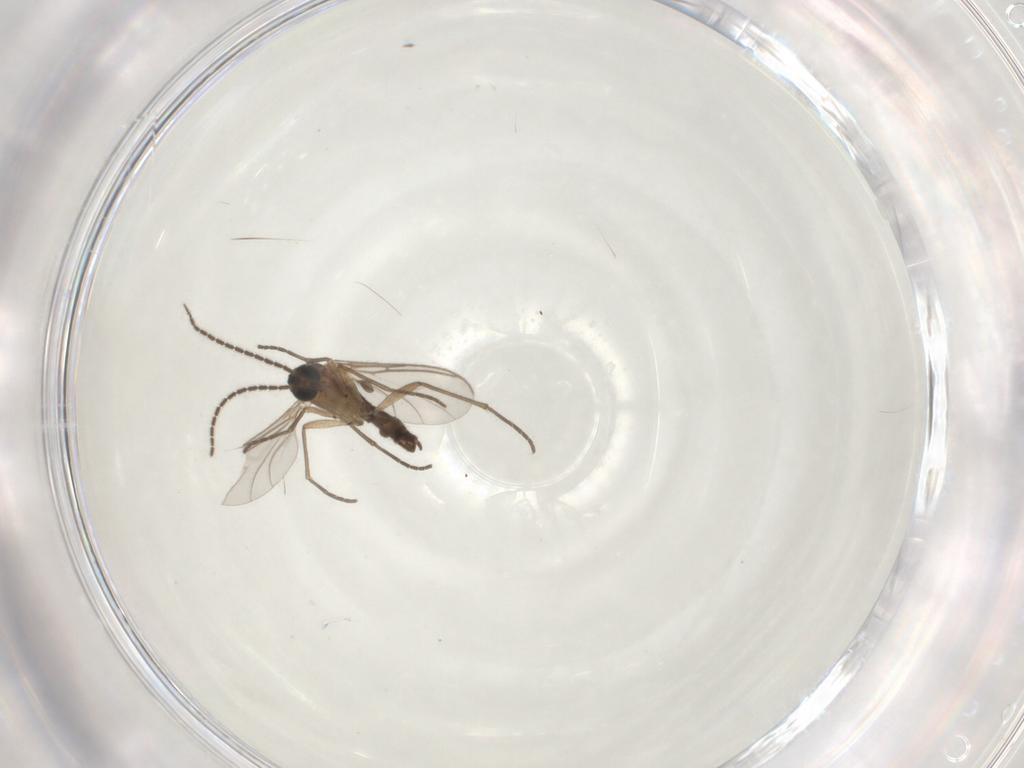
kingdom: Animalia
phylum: Arthropoda
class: Insecta
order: Diptera
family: Sciaridae
